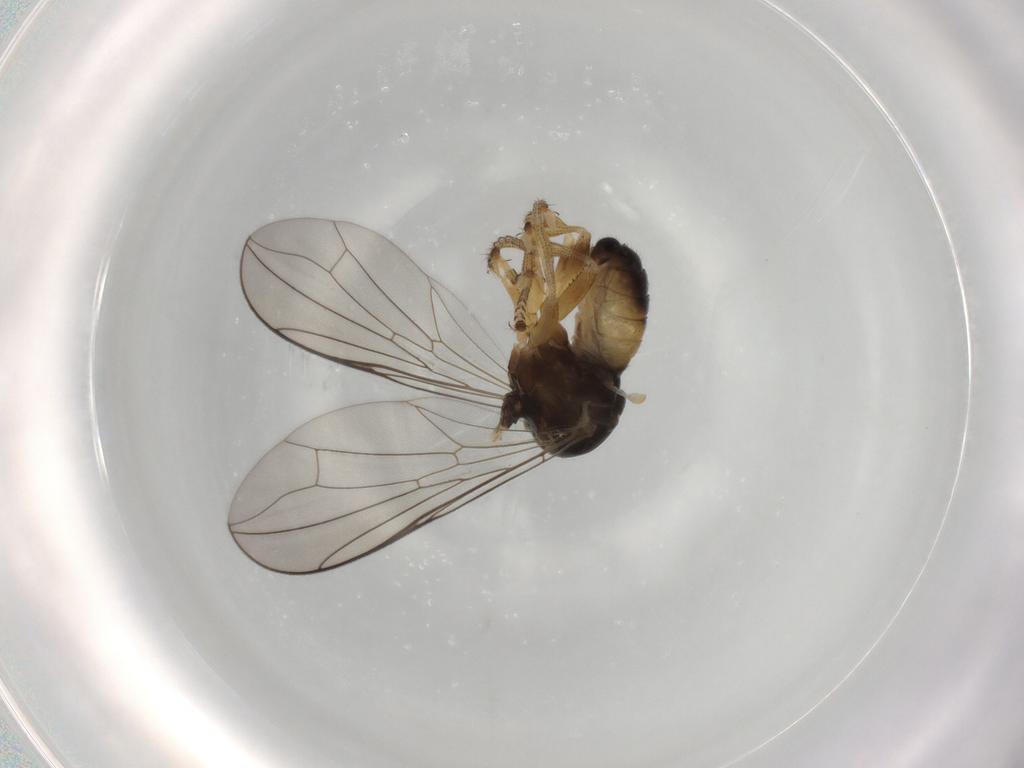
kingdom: Animalia
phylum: Arthropoda
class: Insecta
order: Diptera
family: Pipunculidae
